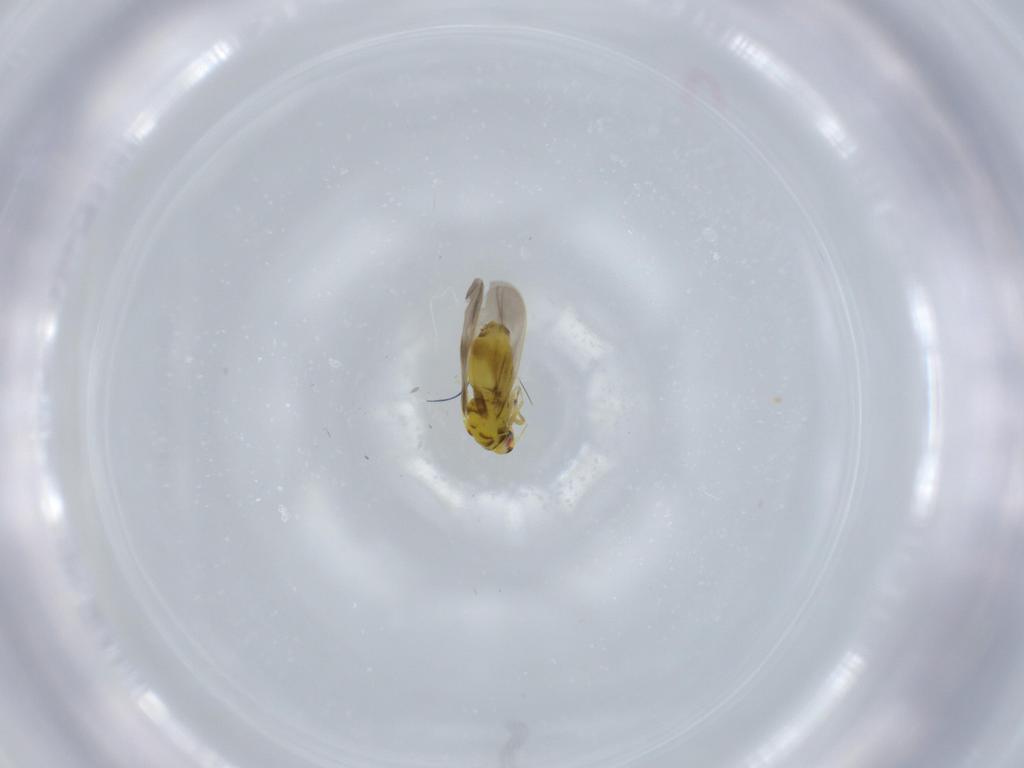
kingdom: Animalia
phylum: Arthropoda
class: Insecta
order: Hemiptera
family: Aleyrodidae
